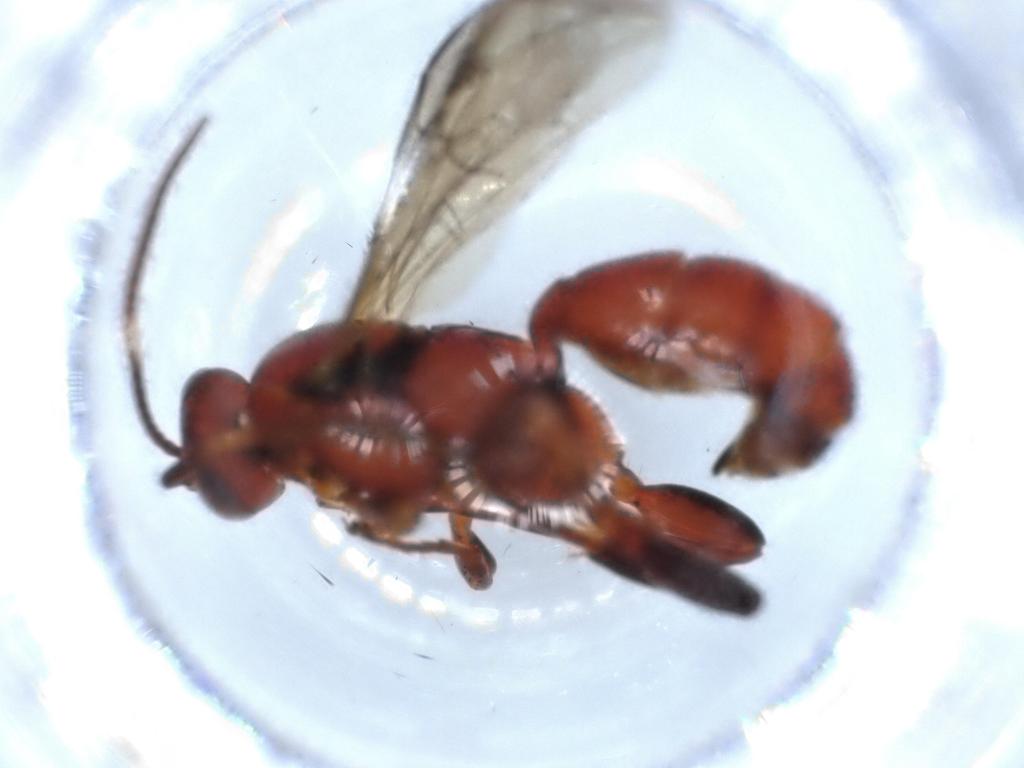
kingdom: Animalia
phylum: Arthropoda
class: Insecta
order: Hymenoptera
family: Ichneumonidae
